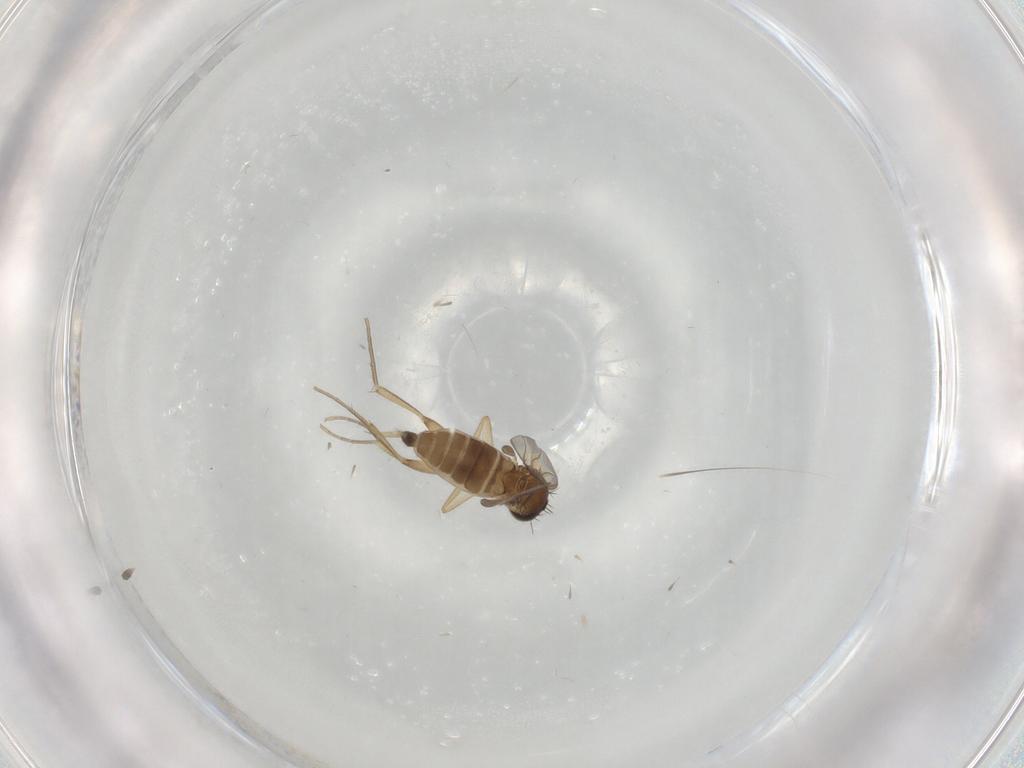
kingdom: Animalia
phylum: Arthropoda
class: Insecta
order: Diptera
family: Phoridae
